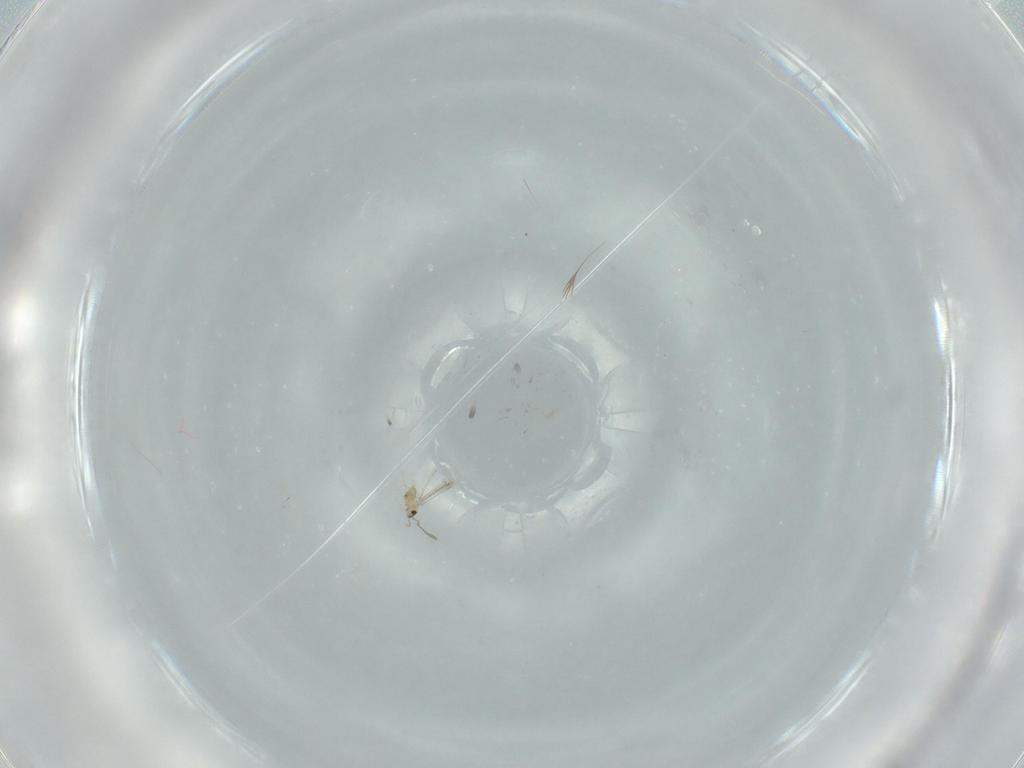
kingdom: Animalia
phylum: Arthropoda
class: Insecta
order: Hymenoptera
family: Mymaridae
